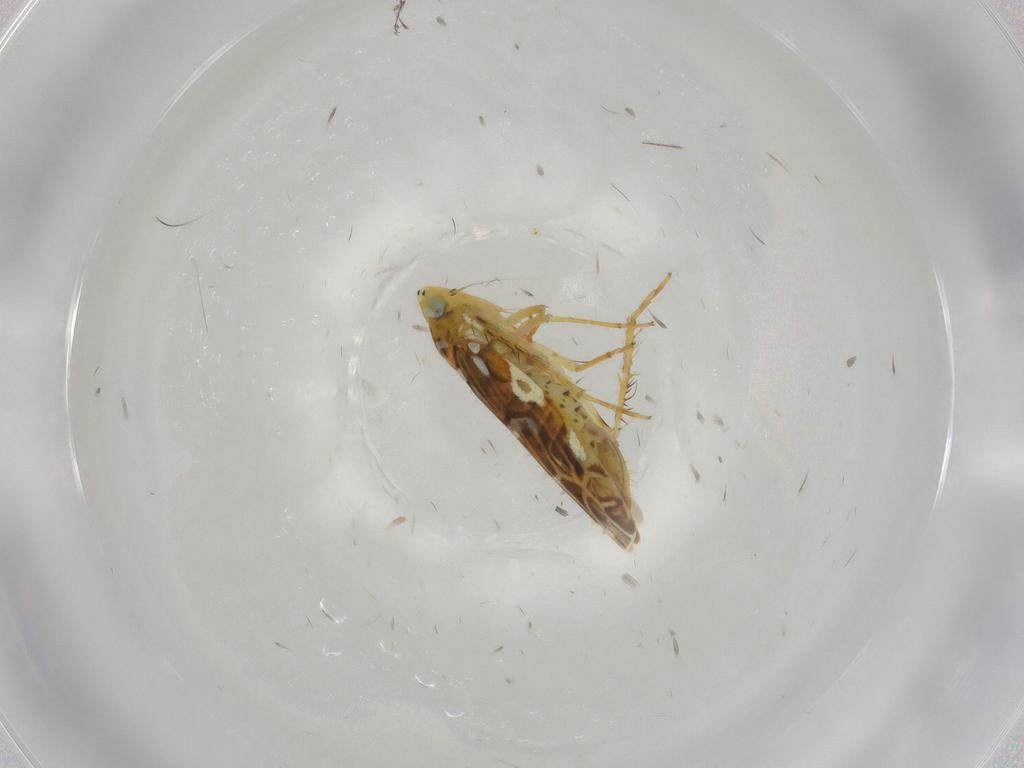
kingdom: Animalia
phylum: Arthropoda
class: Insecta
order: Hemiptera
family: Cicadellidae
